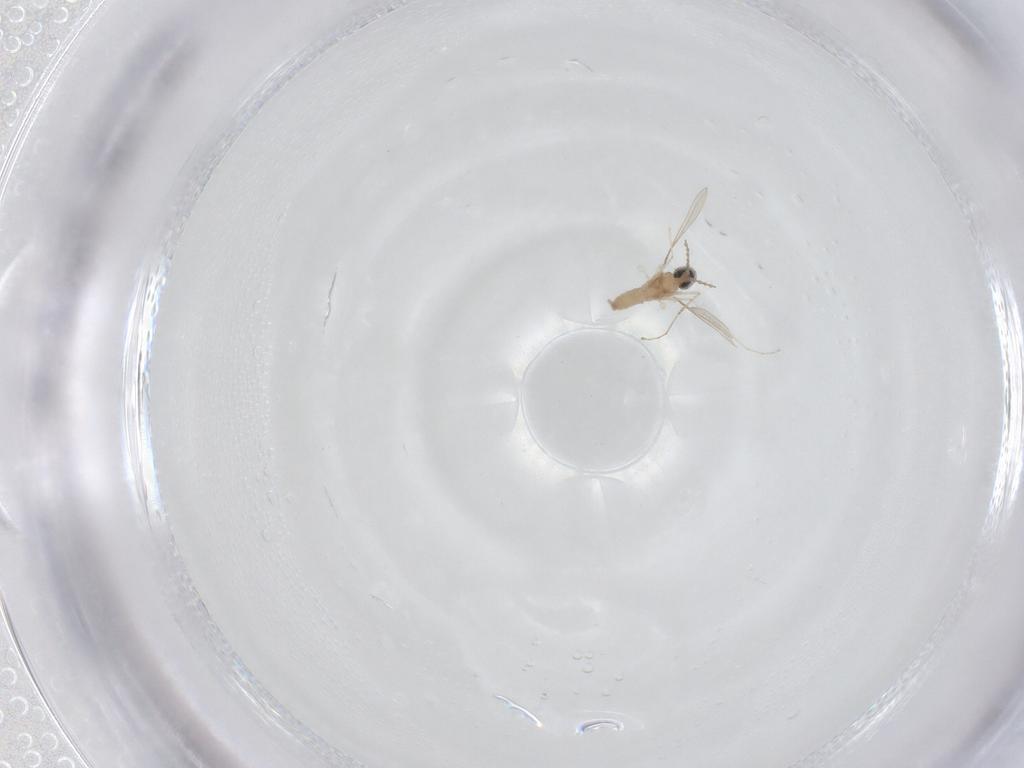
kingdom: Animalia
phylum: Arthropoda
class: Insecta
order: Diptera
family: Cecidomyiidae
